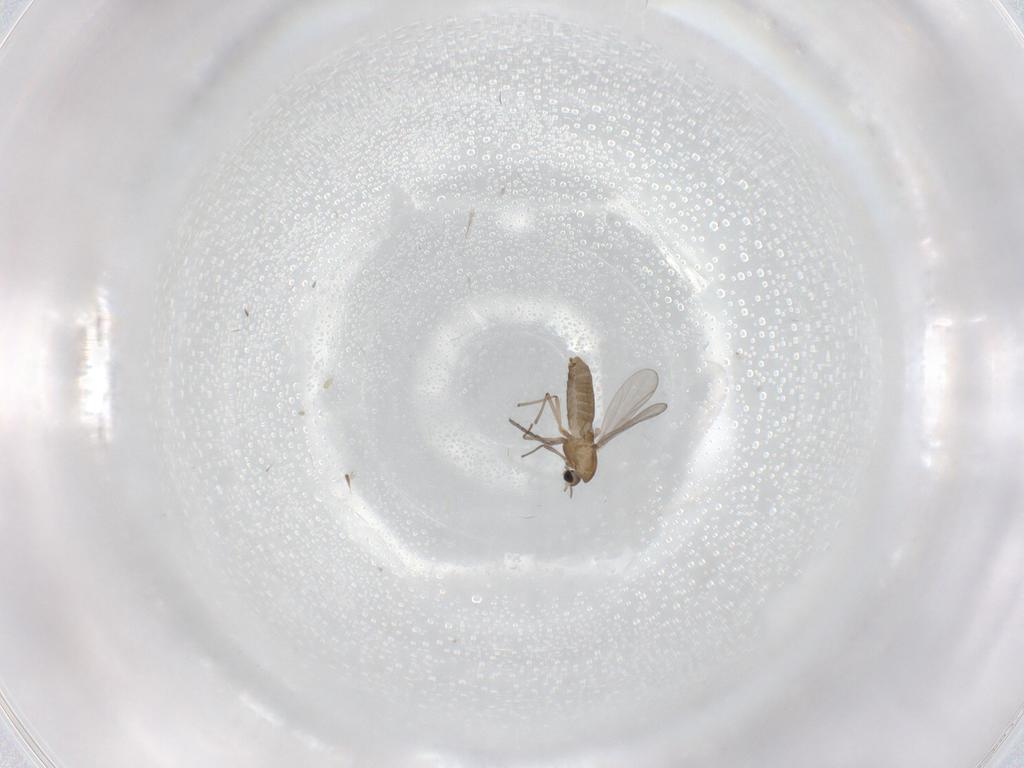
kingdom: Animalia
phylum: Arthropoda
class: Insecta
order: Diptera
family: Chironomidae
